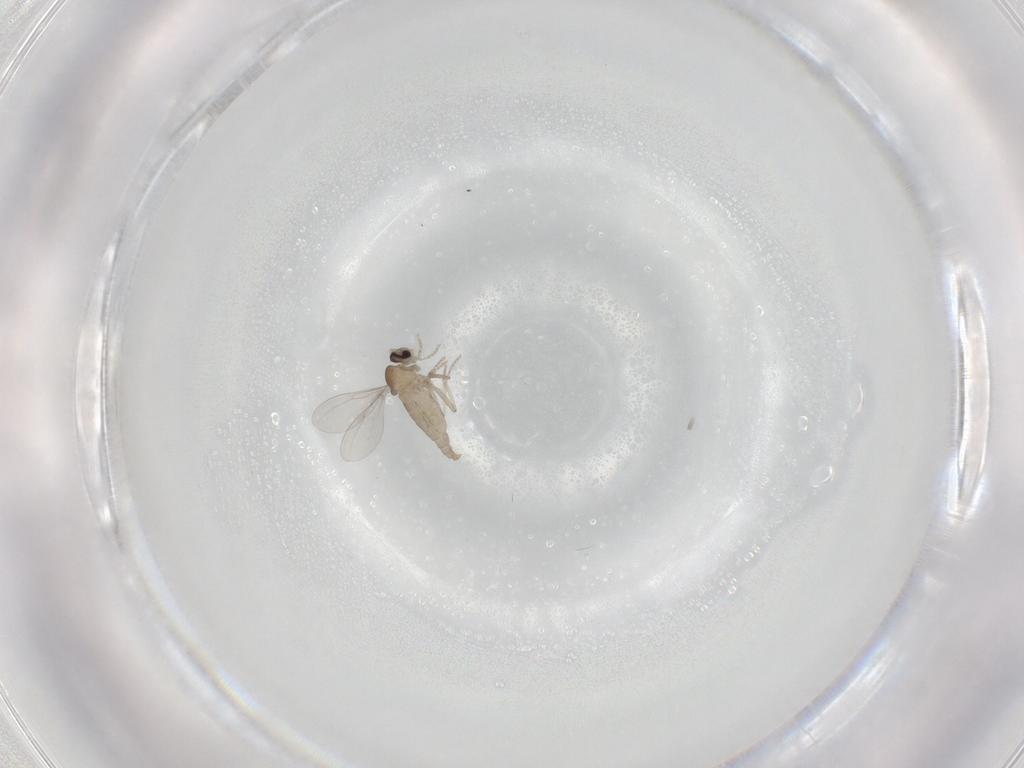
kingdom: Animalia
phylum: Arthropoda
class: Insecta
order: Diptera
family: Cecidomyiidae
